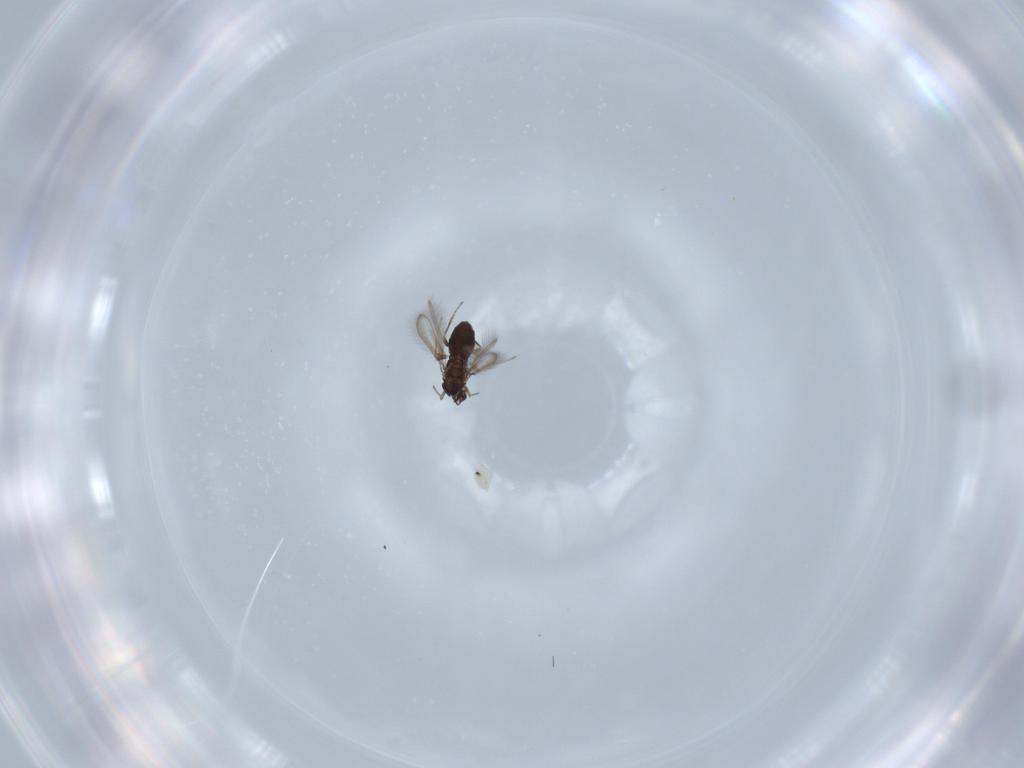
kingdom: Animalia
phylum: Arthropoda
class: Insecta
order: Hymenoptera
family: Mymaridae
